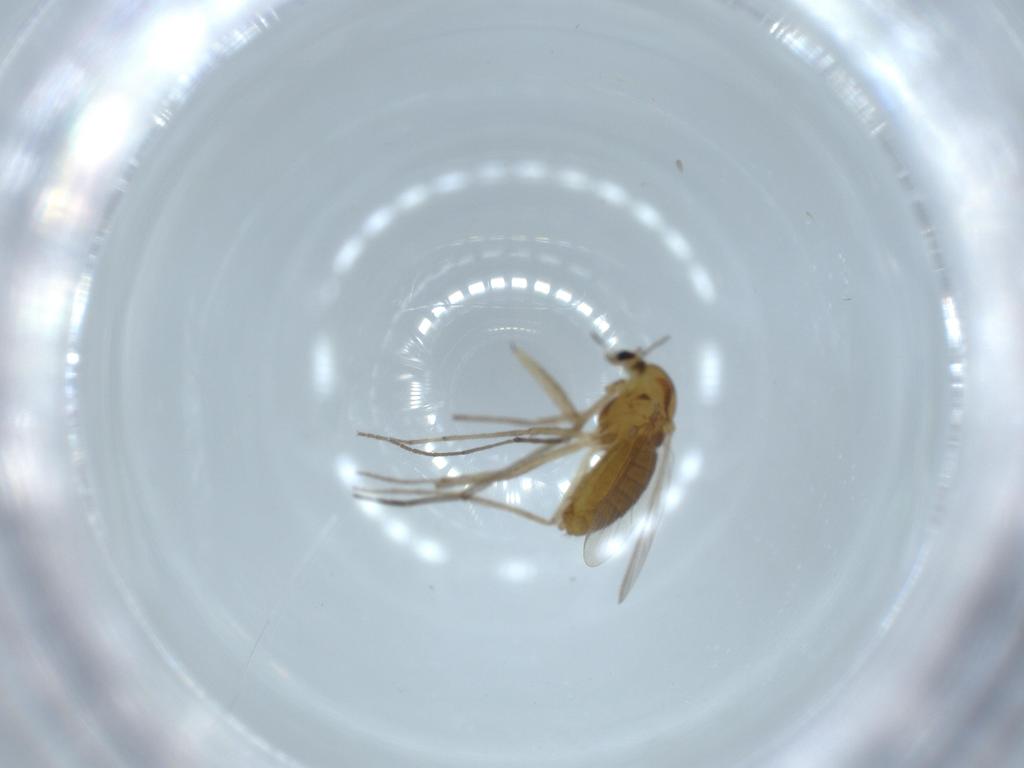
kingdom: Animalia
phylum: Arthropoda
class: Insecta
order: Diptera
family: Chironomidae
